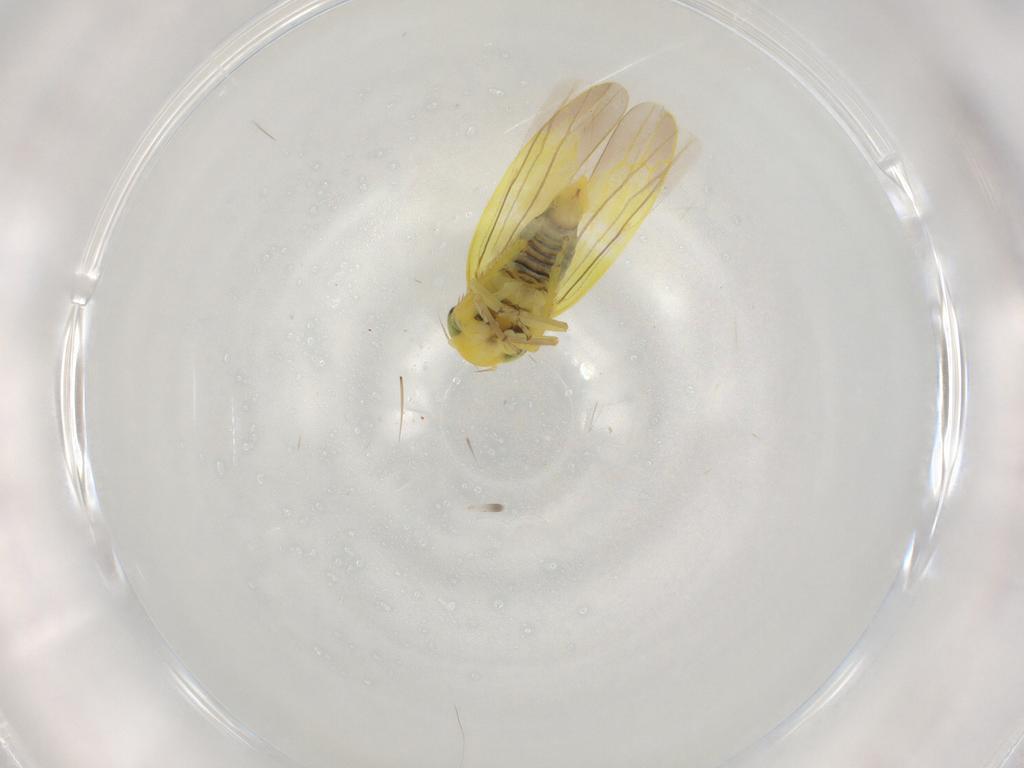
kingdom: Animalia
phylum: Arthropoda
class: Insecta
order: Hemiptera
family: Cicadellidae
